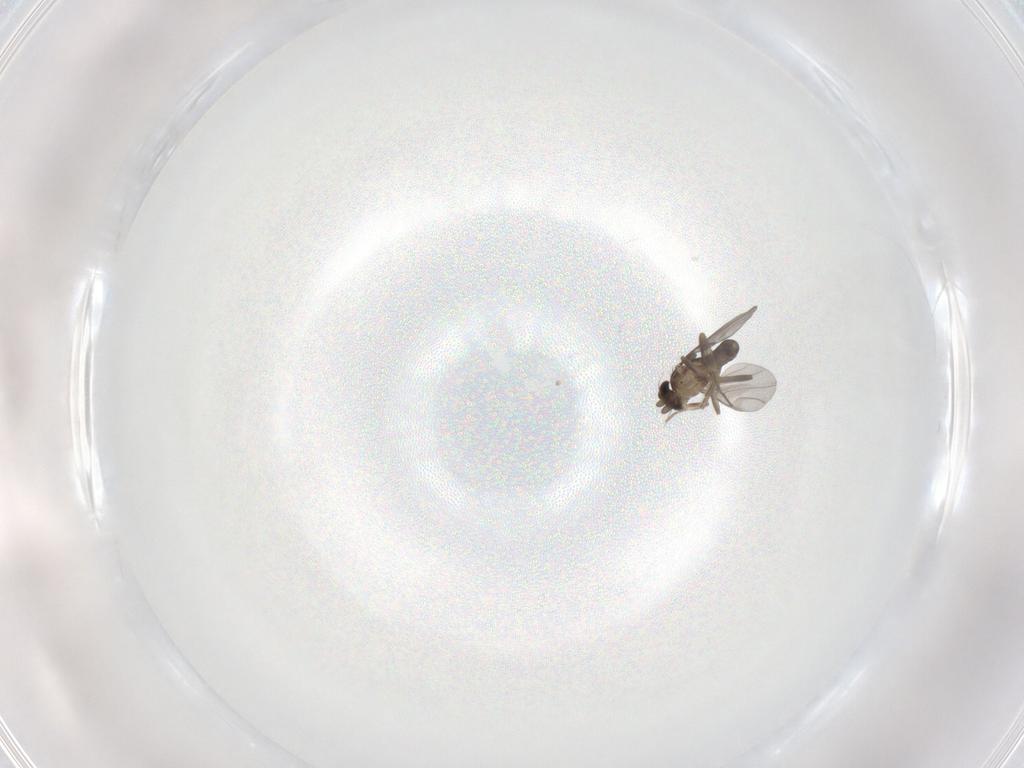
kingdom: Animalia
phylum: Arthropoda
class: Insecta
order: Diptera
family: Phoridae
